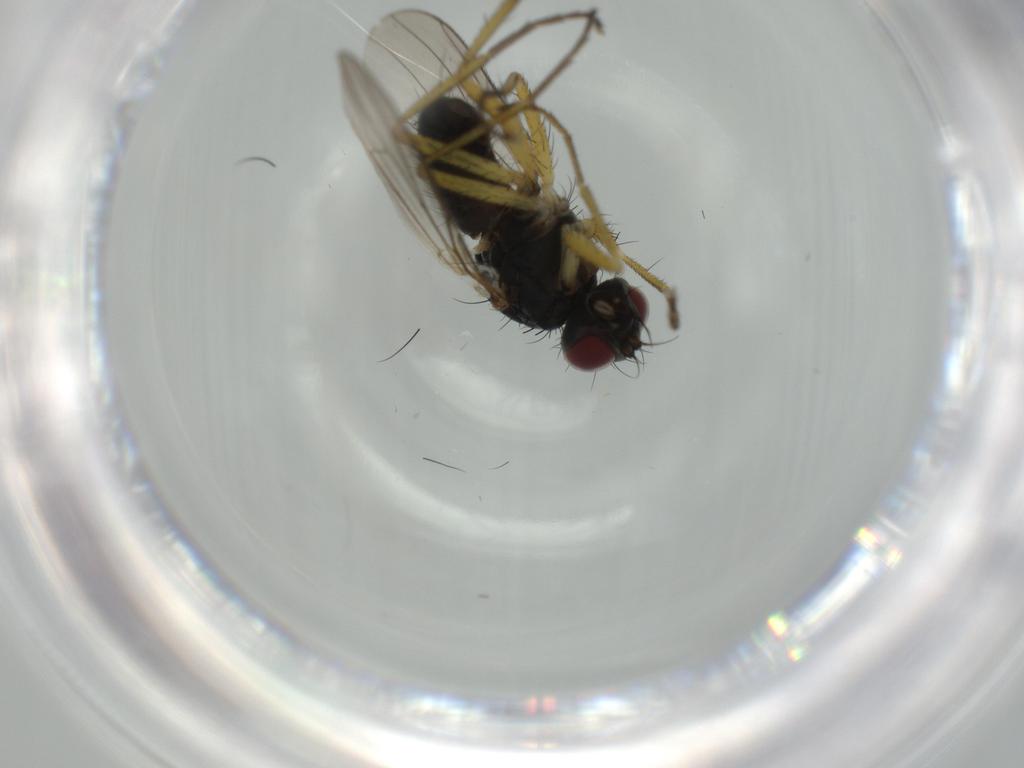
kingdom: Animalia
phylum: Arthropoda
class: Insecta
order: Diptera
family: Muscidae
